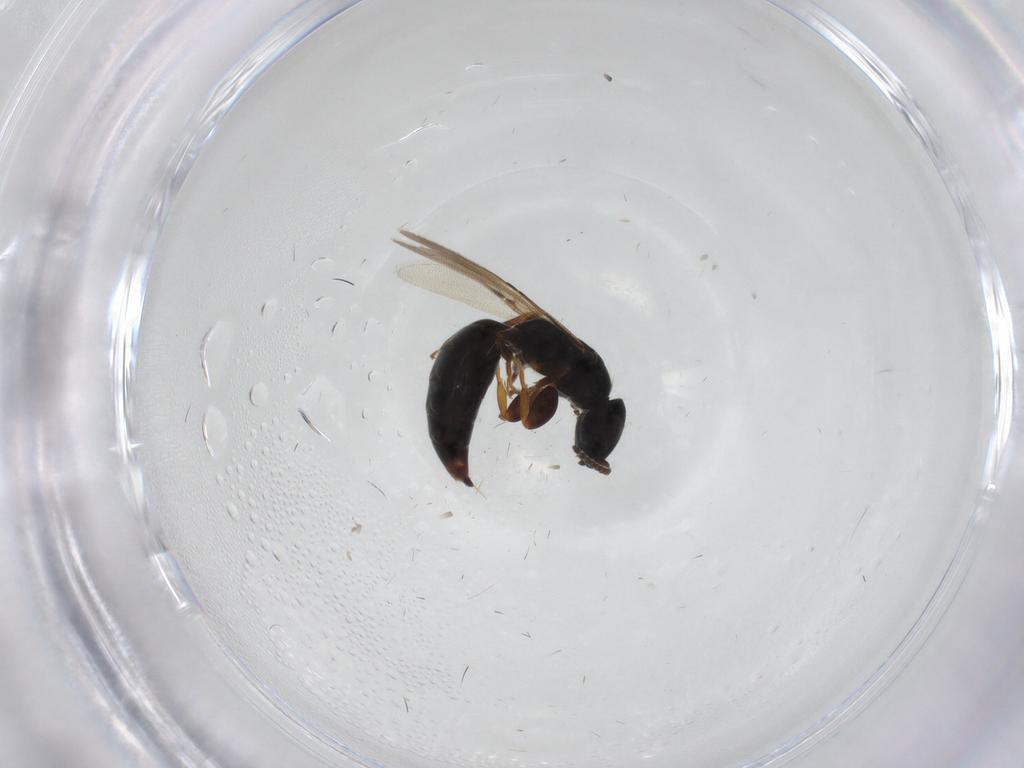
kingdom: Animalia
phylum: Arthropoda
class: Insecta
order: Hymenoptera
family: Bethylidae
